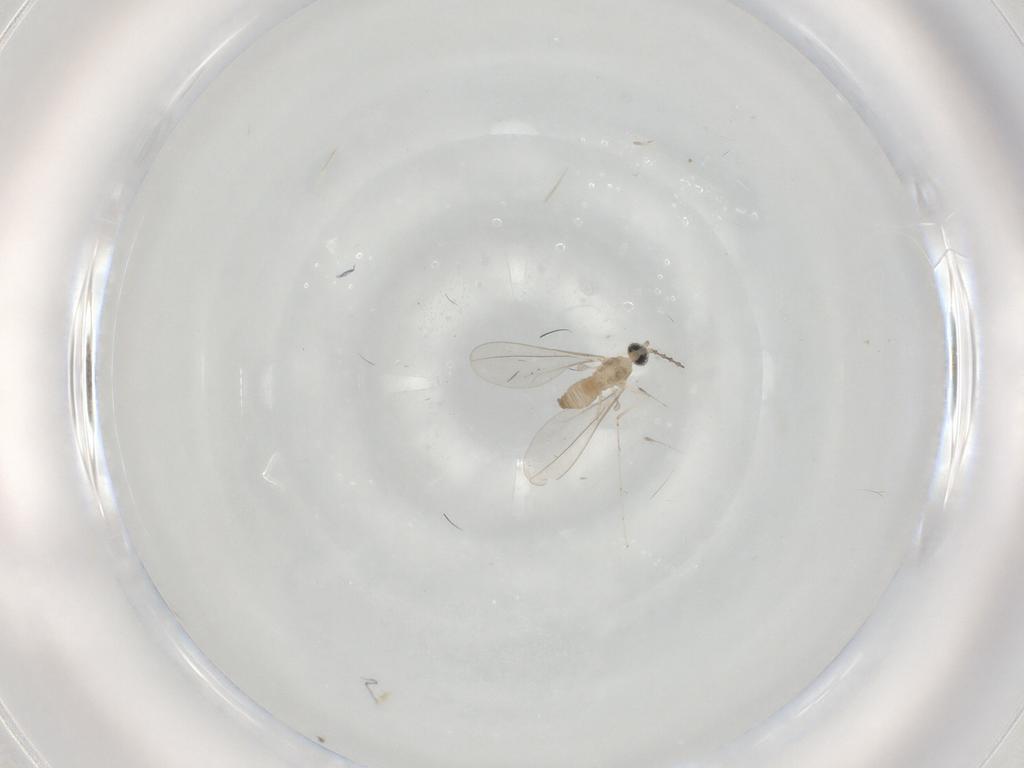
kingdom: Animalia
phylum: Arthropoda
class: Insecta
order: Diptera
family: Cecidomyiidae
